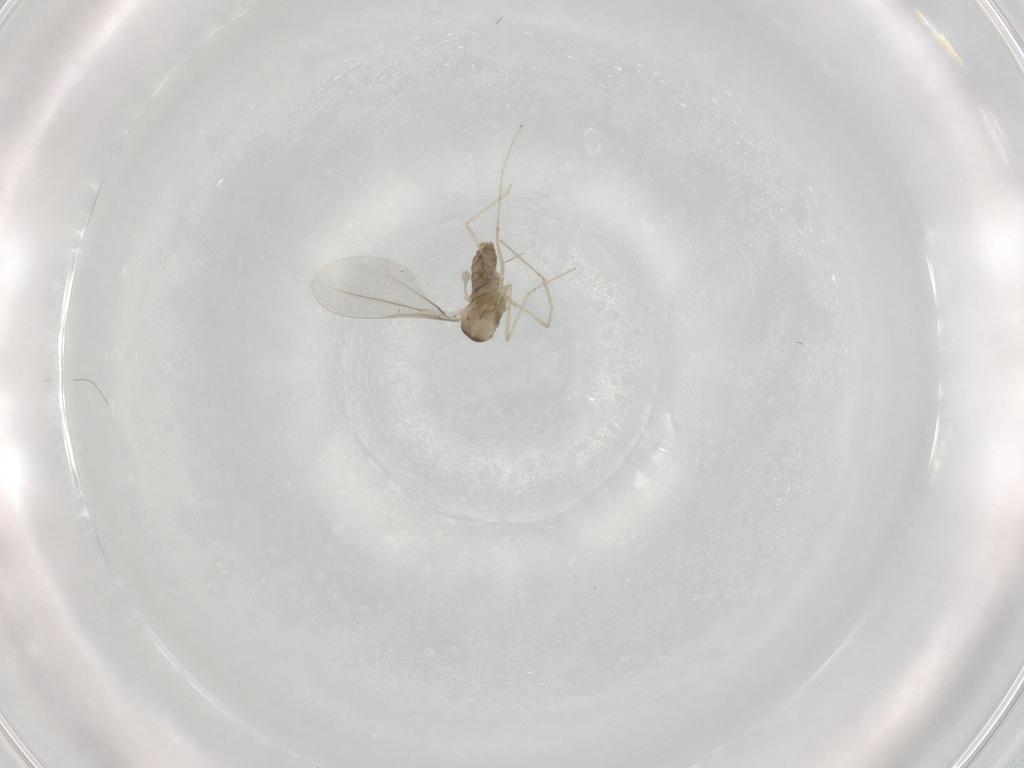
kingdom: Animalia
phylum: Arthropoda
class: Insecta
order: Diptera
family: Cecidomyiidae
